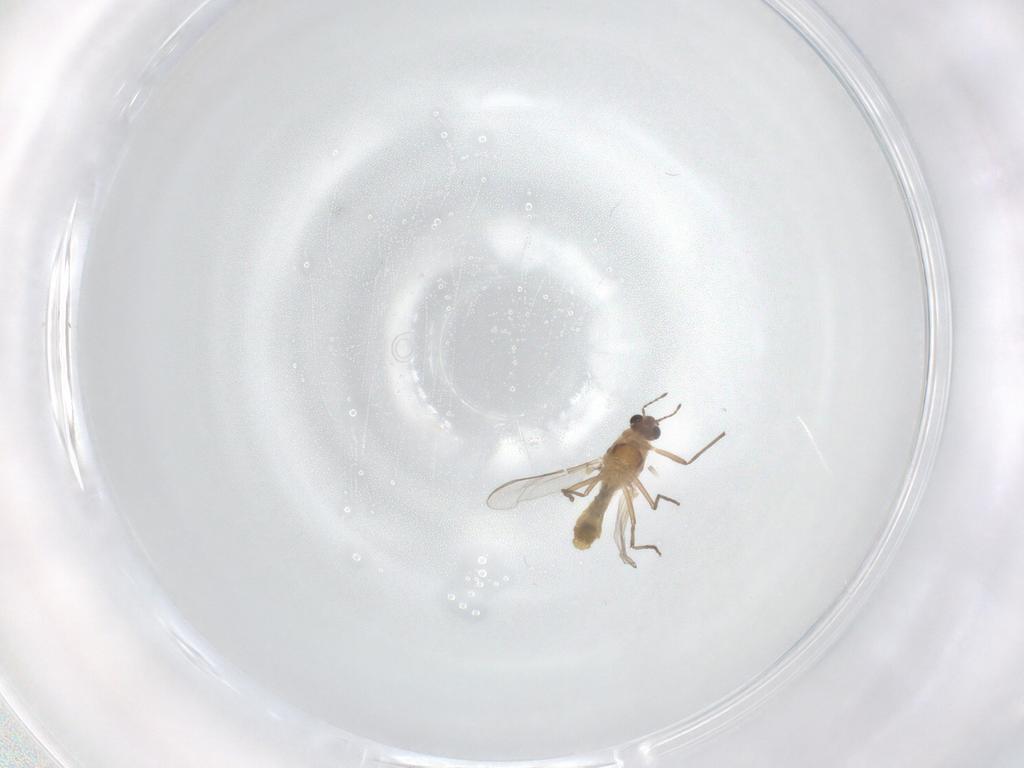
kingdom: Animalia
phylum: Arthropoda
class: Insecta
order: Diptera
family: Chironomidae
